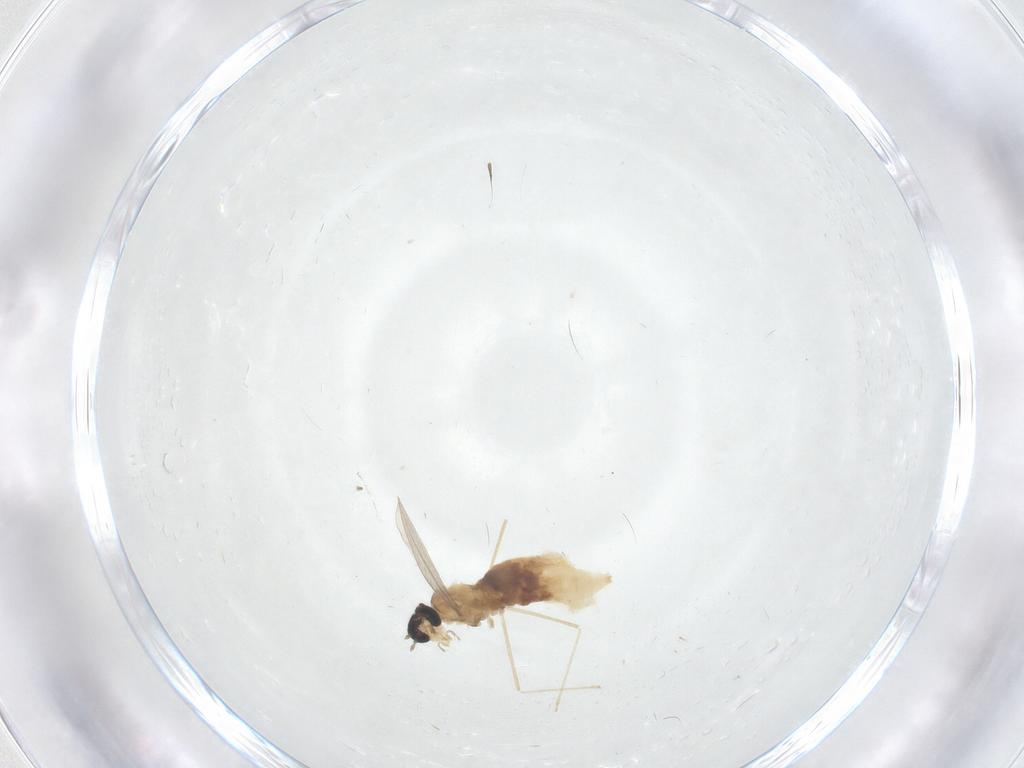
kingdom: Animalia
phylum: Arthropoda
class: Insecta
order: Diptera
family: Cecidomyiidae
